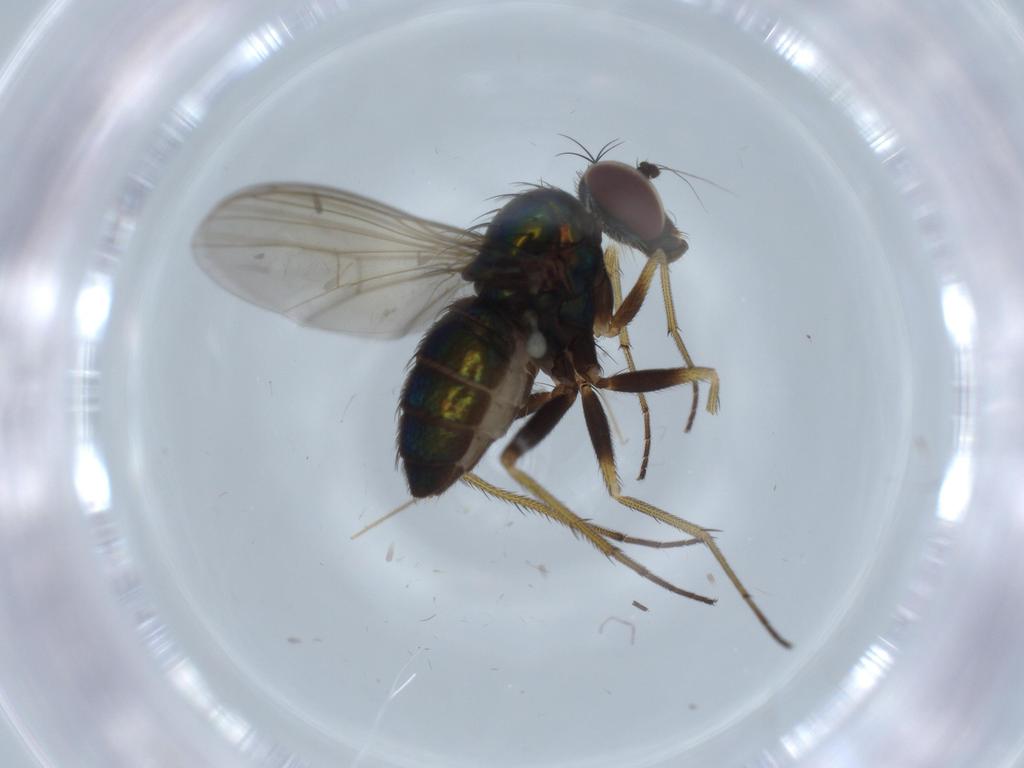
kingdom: Animalia
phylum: Arthropoda
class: Insecta
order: Diptera
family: Dolichopodidae
